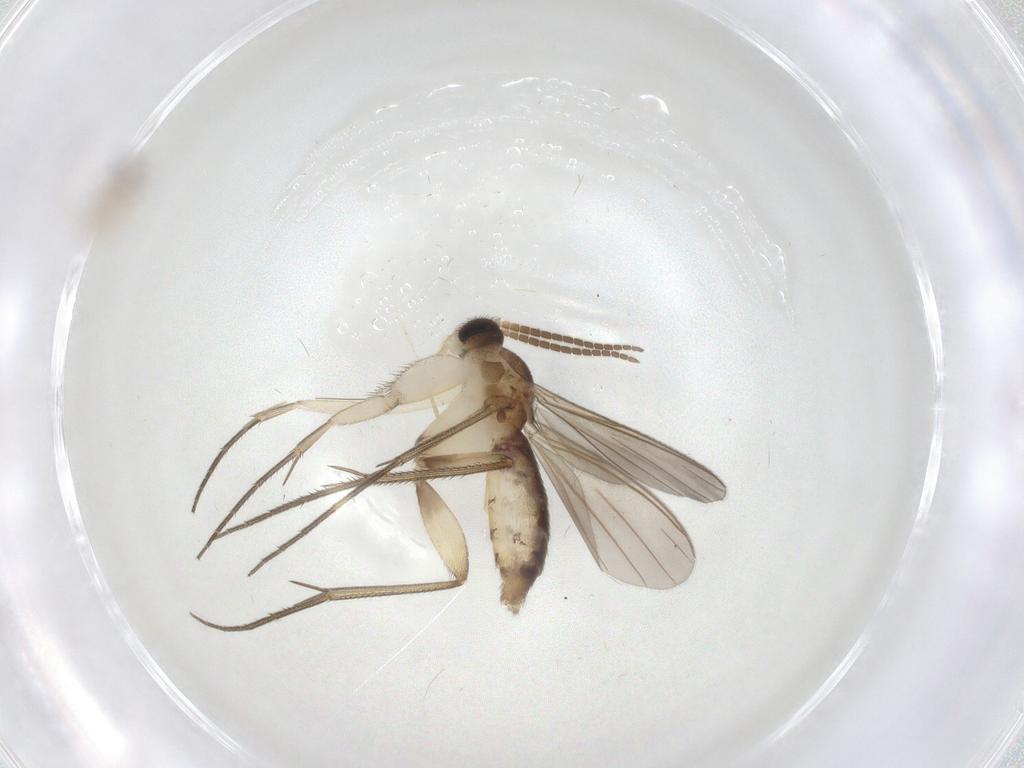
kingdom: Animalia
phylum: Arthropoda
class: Insecta
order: Diptera
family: Mycetophilidae
